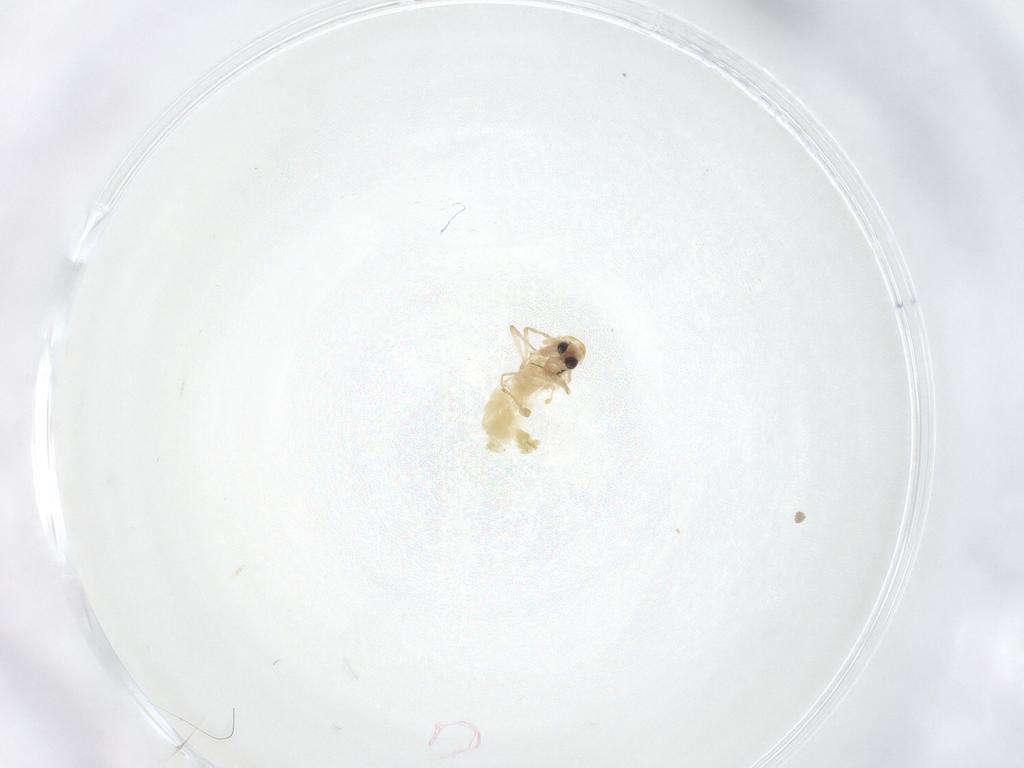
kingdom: Animalia
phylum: Arthropoda
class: Insecta
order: Diptera
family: Chironomidae
